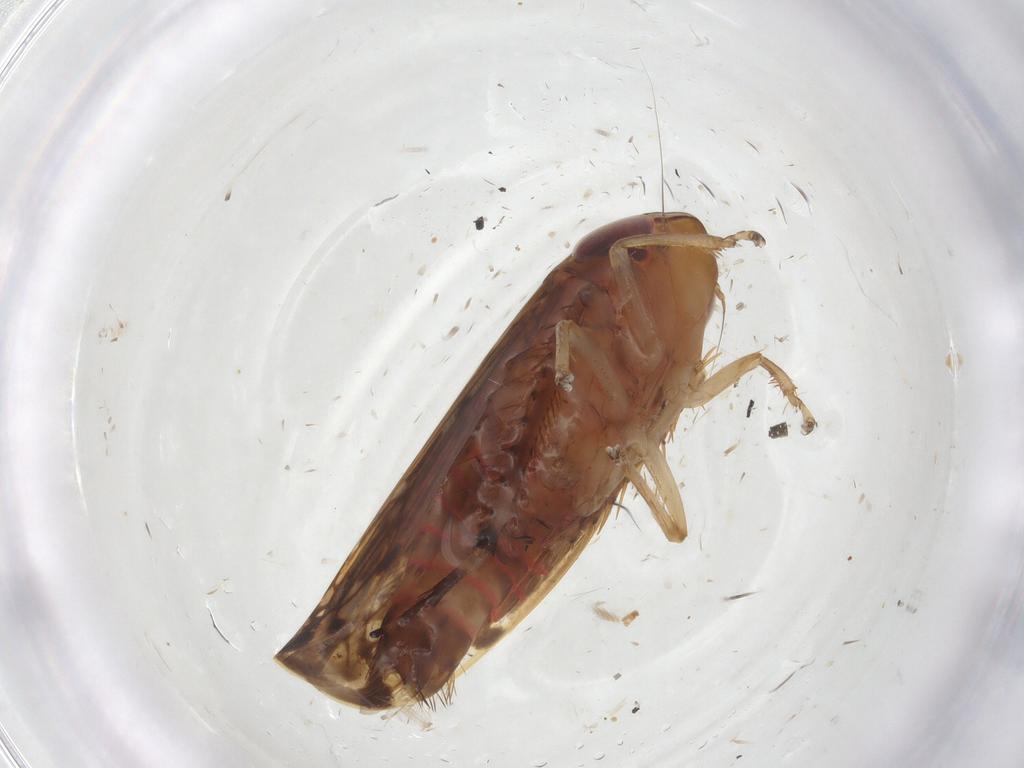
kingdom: Animalia
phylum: Arthropoda
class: Insecta
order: Hemiptera
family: Cicadellidae
